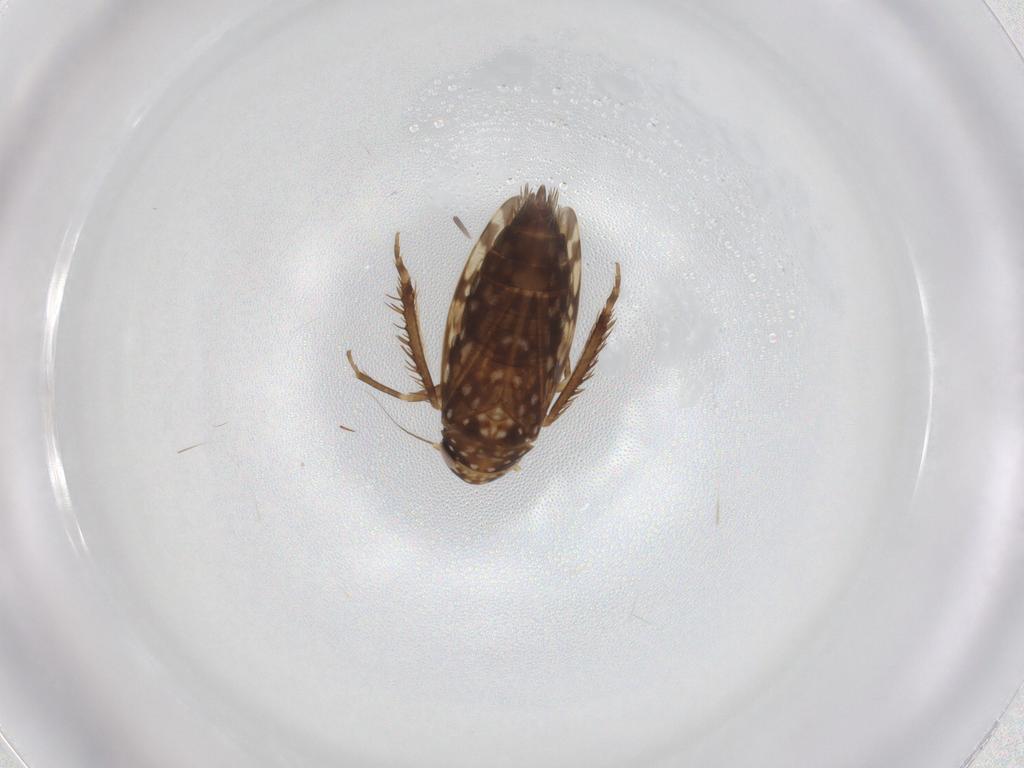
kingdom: Animalia
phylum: Arthropoda
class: Insecta
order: Hemiptera
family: Cicadellidae
